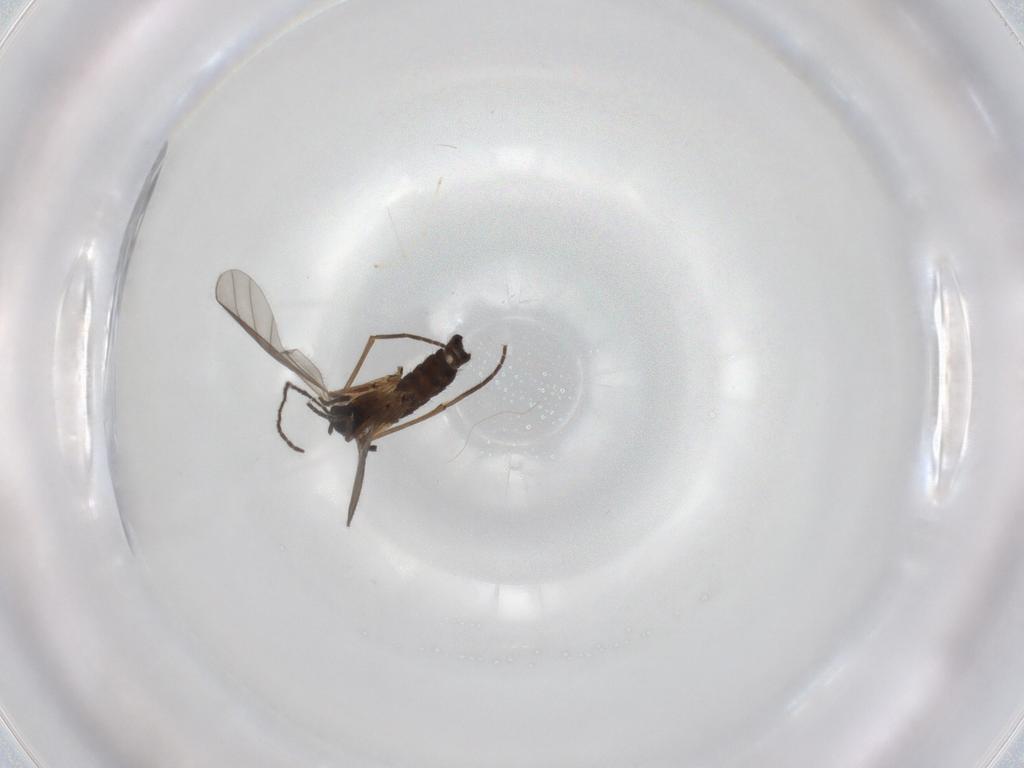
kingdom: Animalia
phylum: Arthropoda
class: Insecta
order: Diptera
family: Sciaridae
